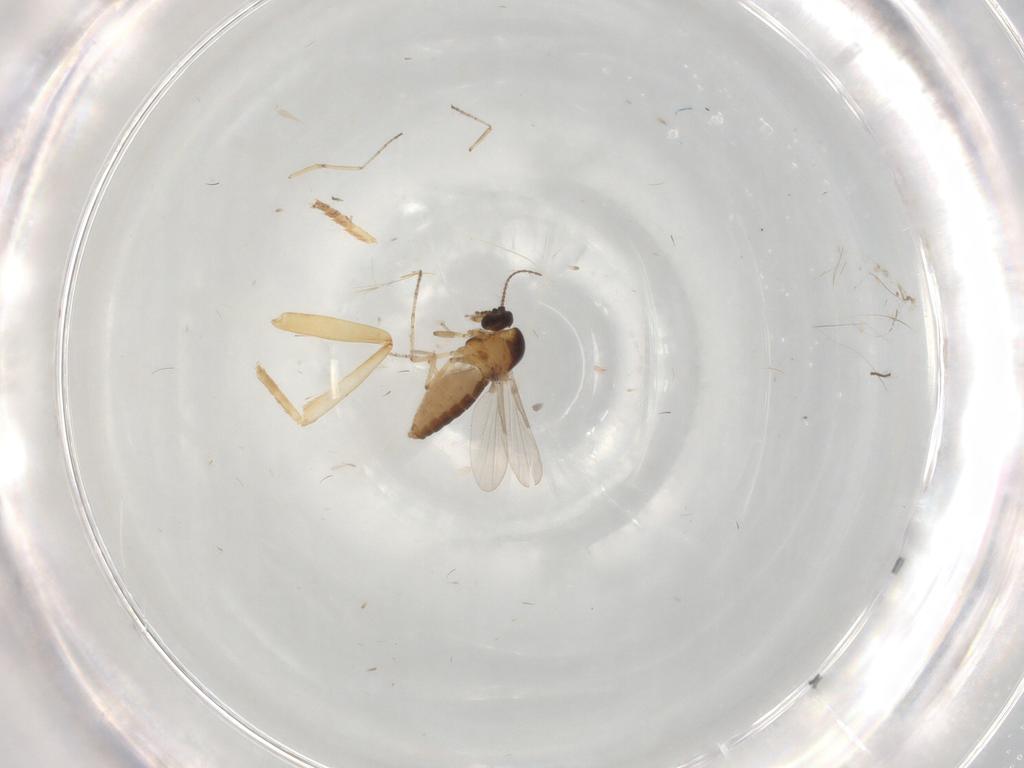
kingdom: Animalia
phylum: Arthropoda
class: Insecta
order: Diptera
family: Ceratopogonidae
